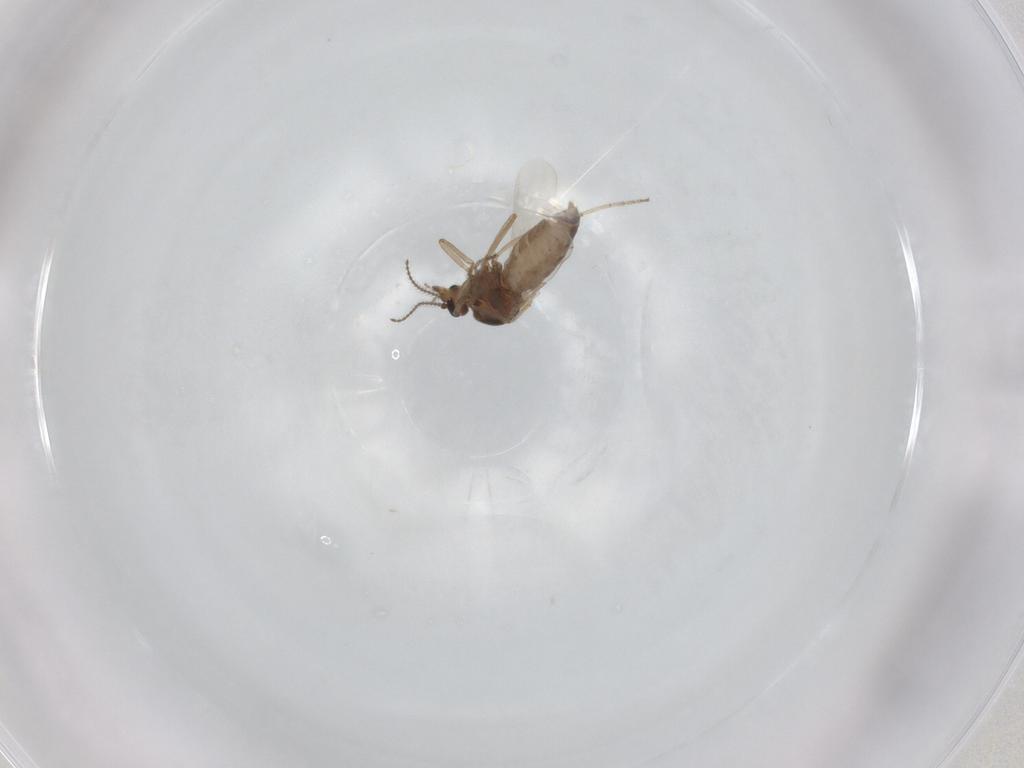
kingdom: Animalia
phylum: Arthropoda
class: Insecta
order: Diptera
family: Ceratopogonidae
